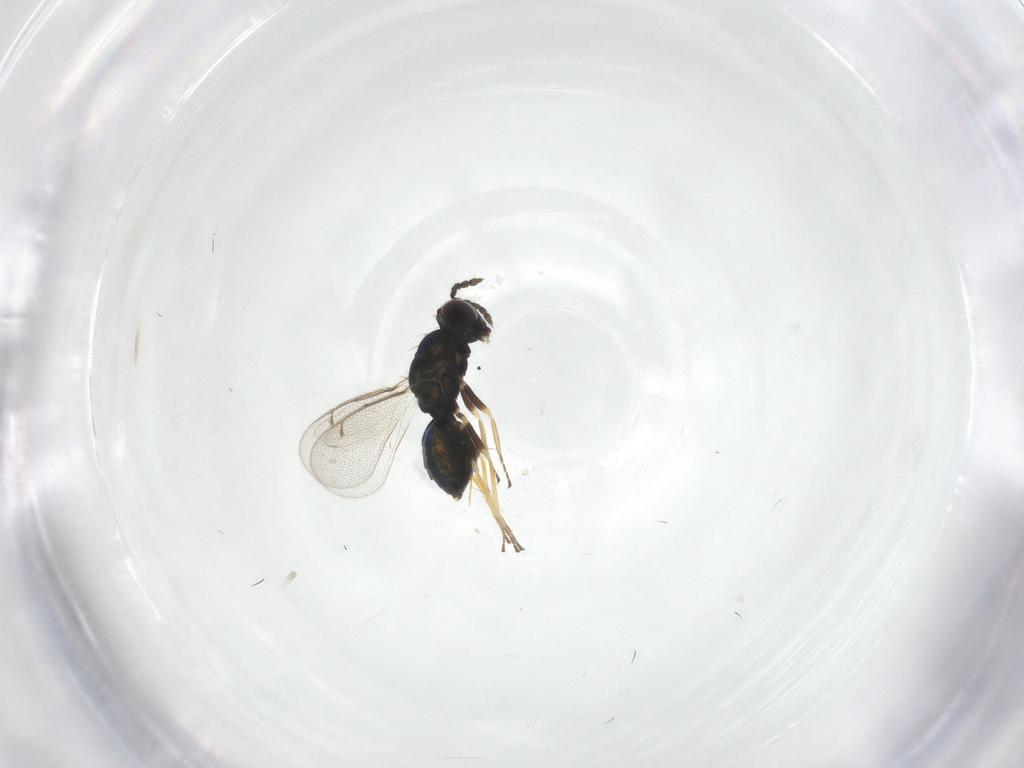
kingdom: Animalia
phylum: Arthropoda
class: Insecta
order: Hymenoptera
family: Eulophidae
